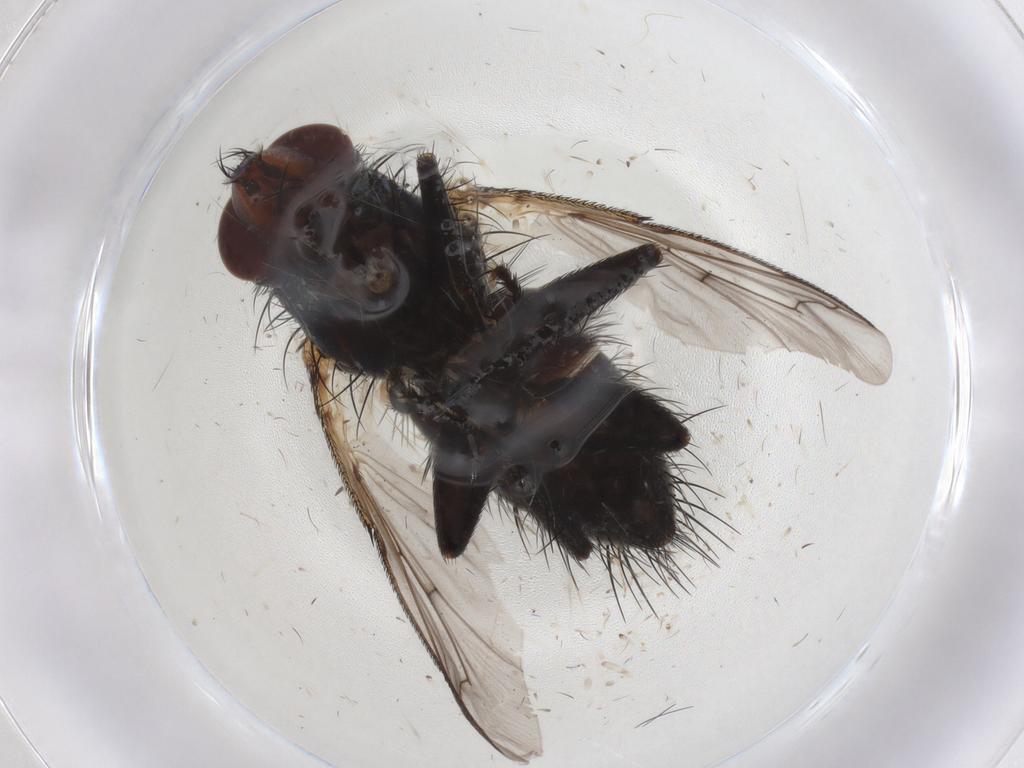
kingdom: Animalia
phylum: Arthropoda
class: Insecta
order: Diptera
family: Tachinidae
